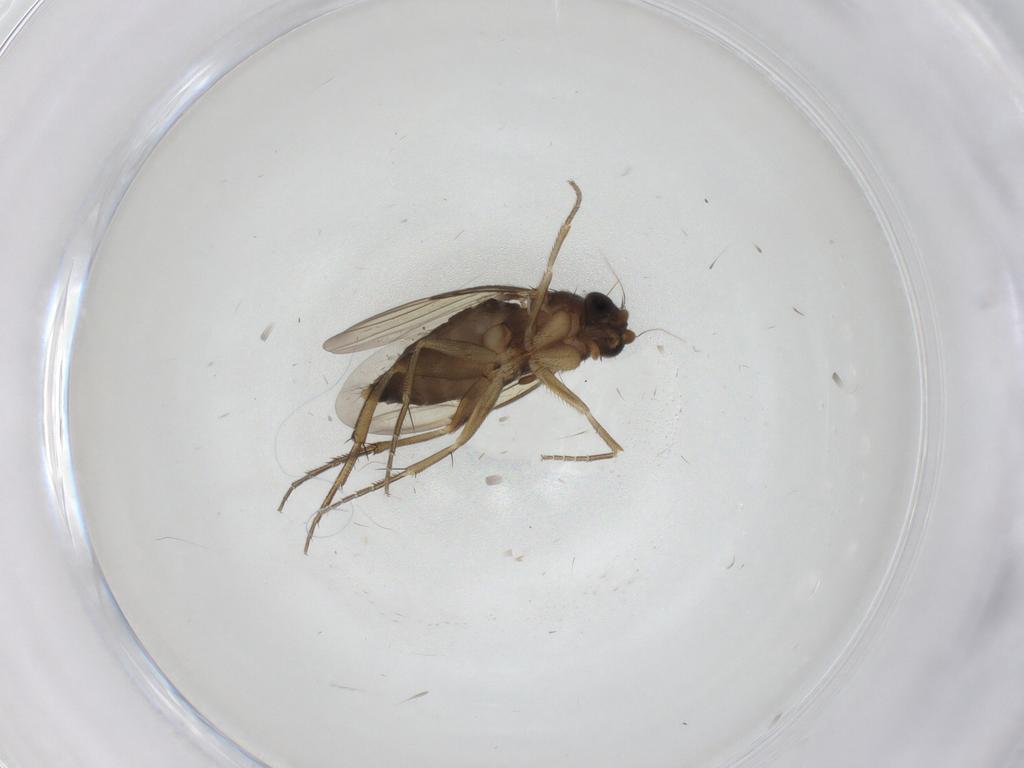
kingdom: Animalia
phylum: Arthropoda
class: Insecta
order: Diptera
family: Phoridae
